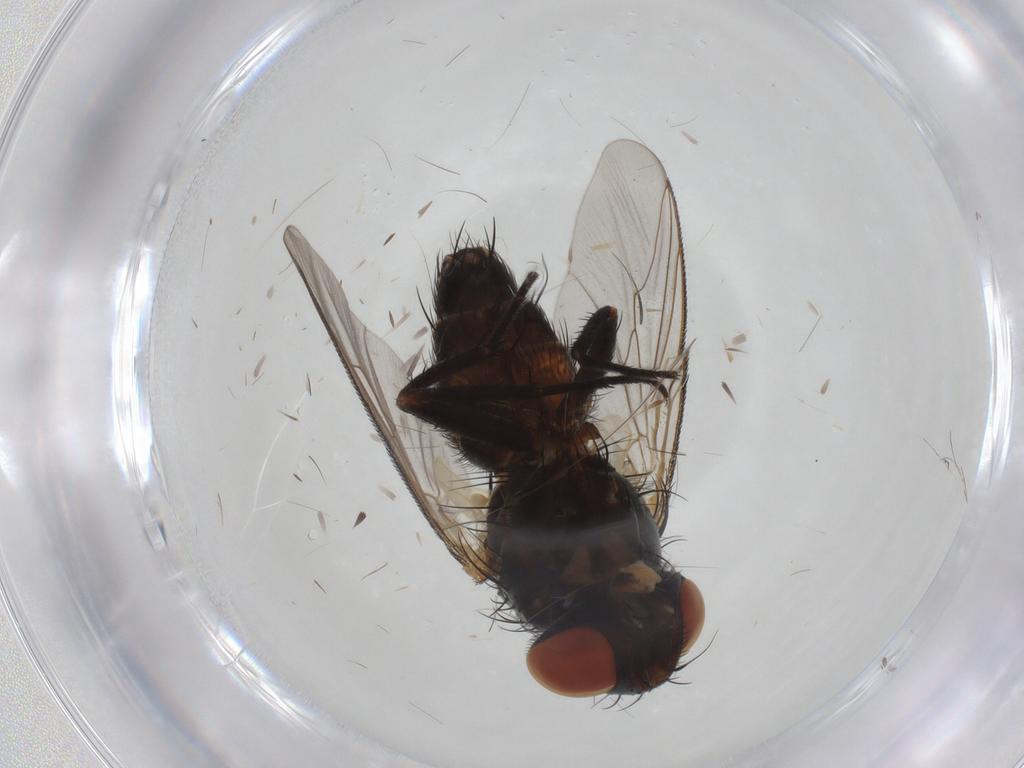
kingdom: Animalia
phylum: Arthropoda
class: Insecta
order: Diptera
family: Sarcophagidae
